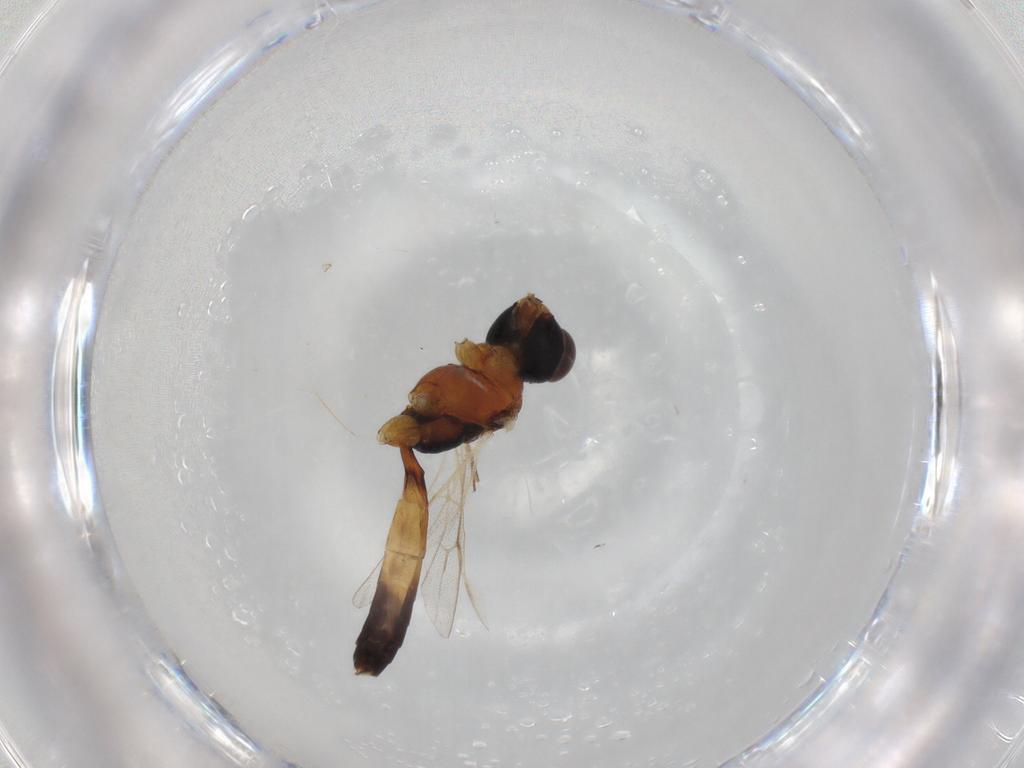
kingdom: Animalia
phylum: Arthropoda
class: Insecta
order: Hymenoptera
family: Ichneumonidae
